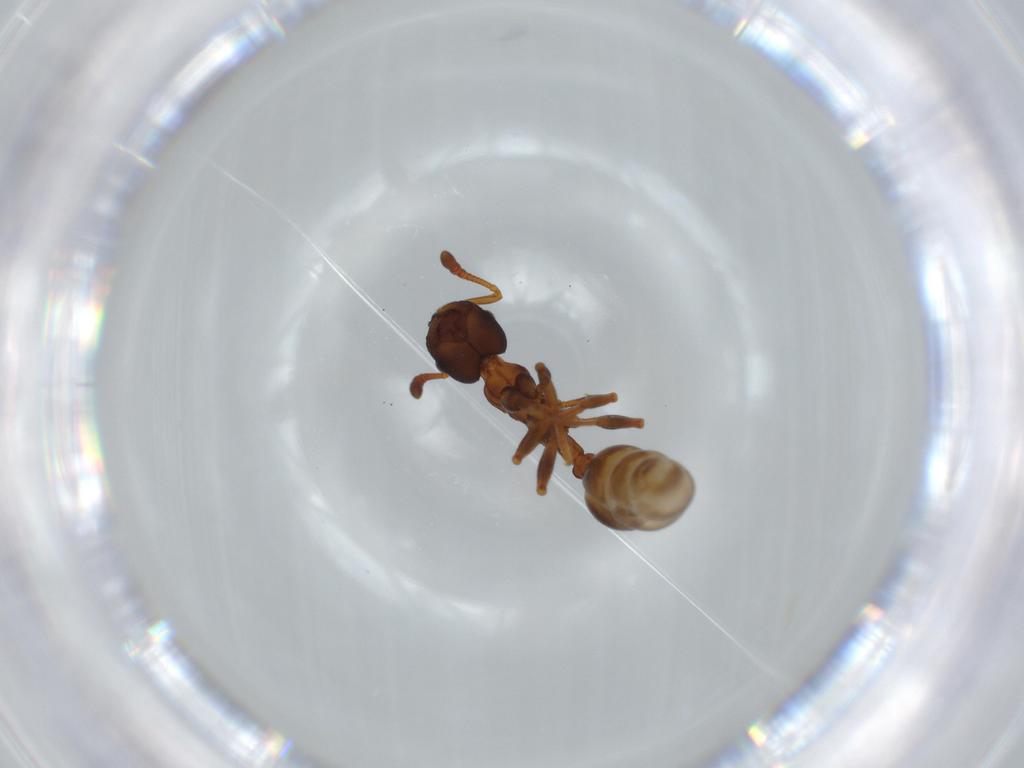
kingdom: Animalia
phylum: Arthropoda
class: Insecta
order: Hymenoptera
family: Formicidae
